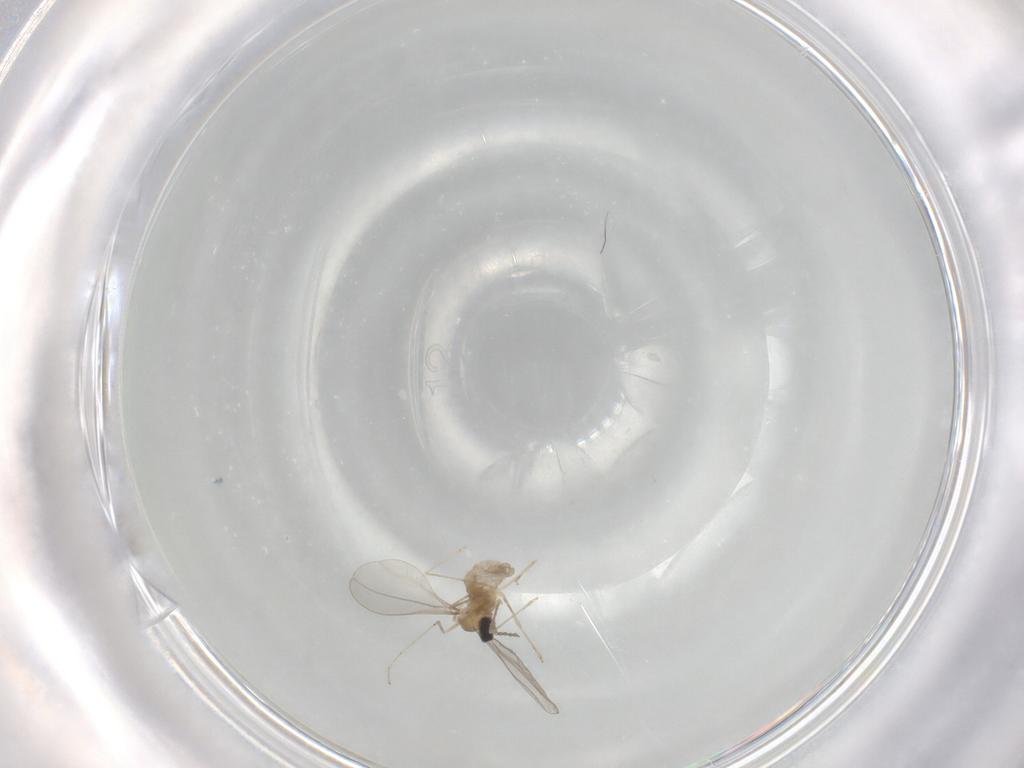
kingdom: Animalia
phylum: Arthropoda
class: Insecta
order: Diptera
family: Cecidomyiidae
